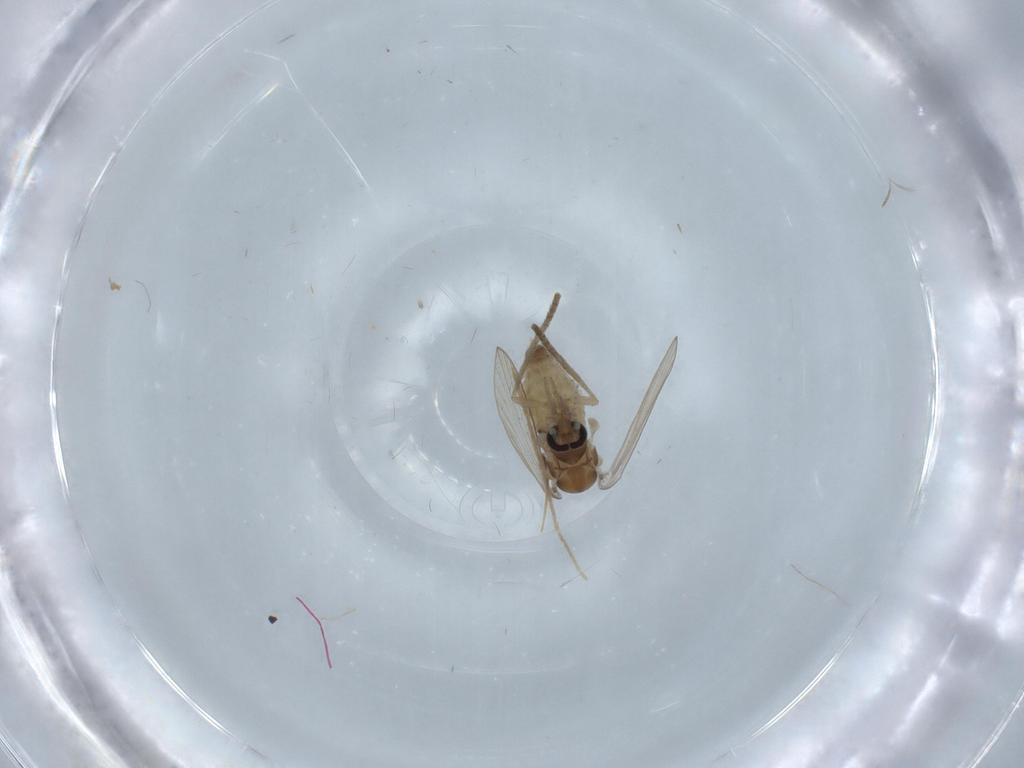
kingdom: Animalia
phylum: Arthropoda
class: Insecta
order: Diptera
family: Chironomidae
